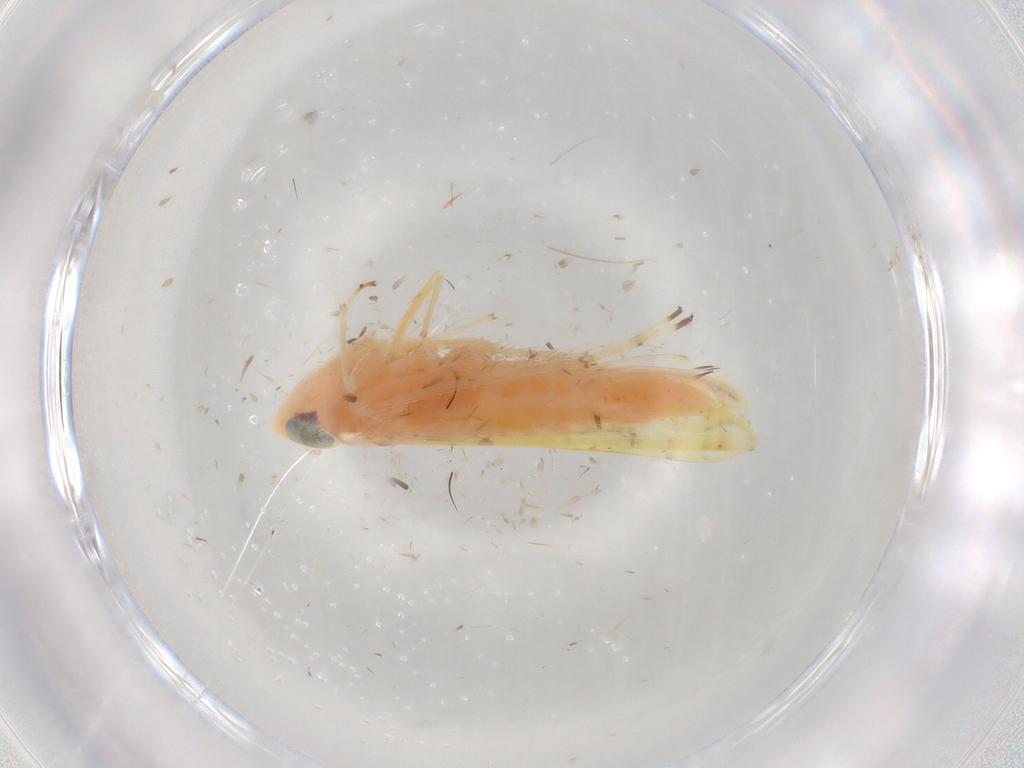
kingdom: Animalia
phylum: Arthropoda
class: Insecta
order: Hemiptera
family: Cicadellidae
